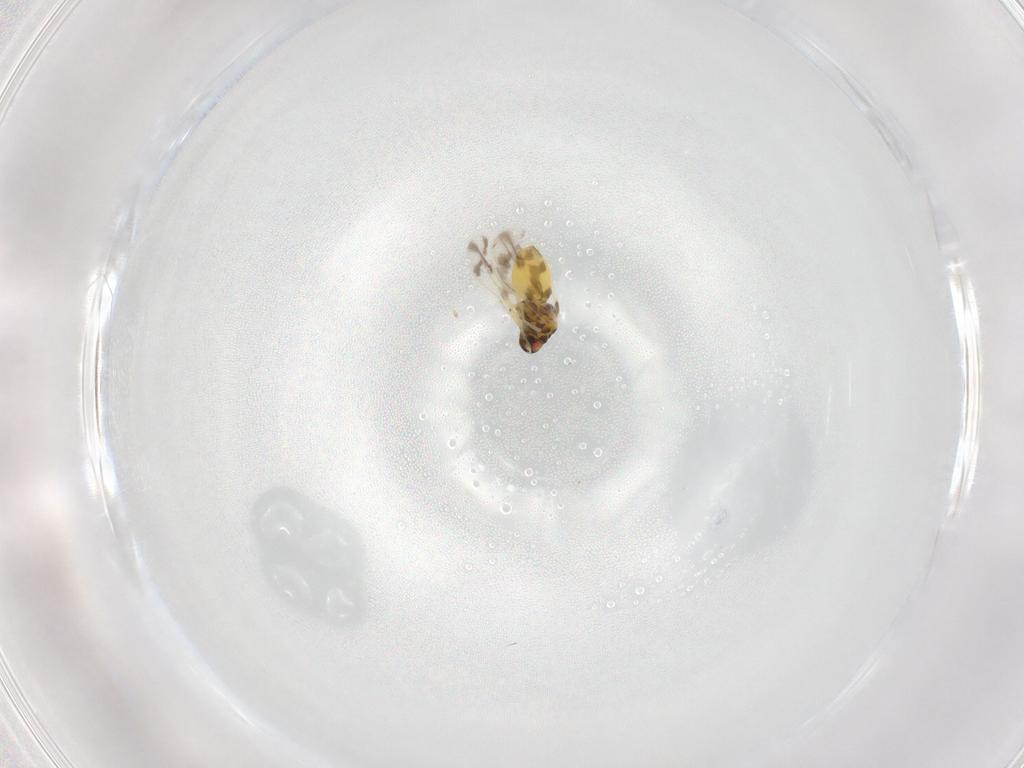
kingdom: Animalia
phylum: Arthropoda
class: Insecta
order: Hemiptera
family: Aleyrodidae
